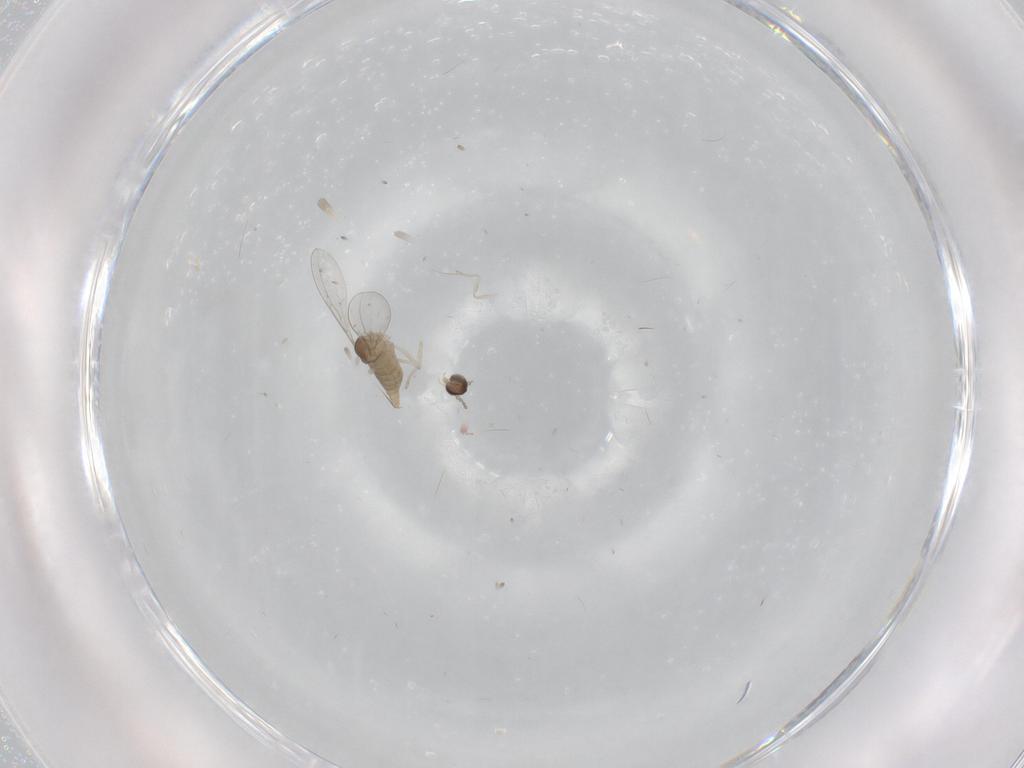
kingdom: Animalia
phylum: Arthropoda
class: Insecta
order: Diptera
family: Cecidomyiidae
